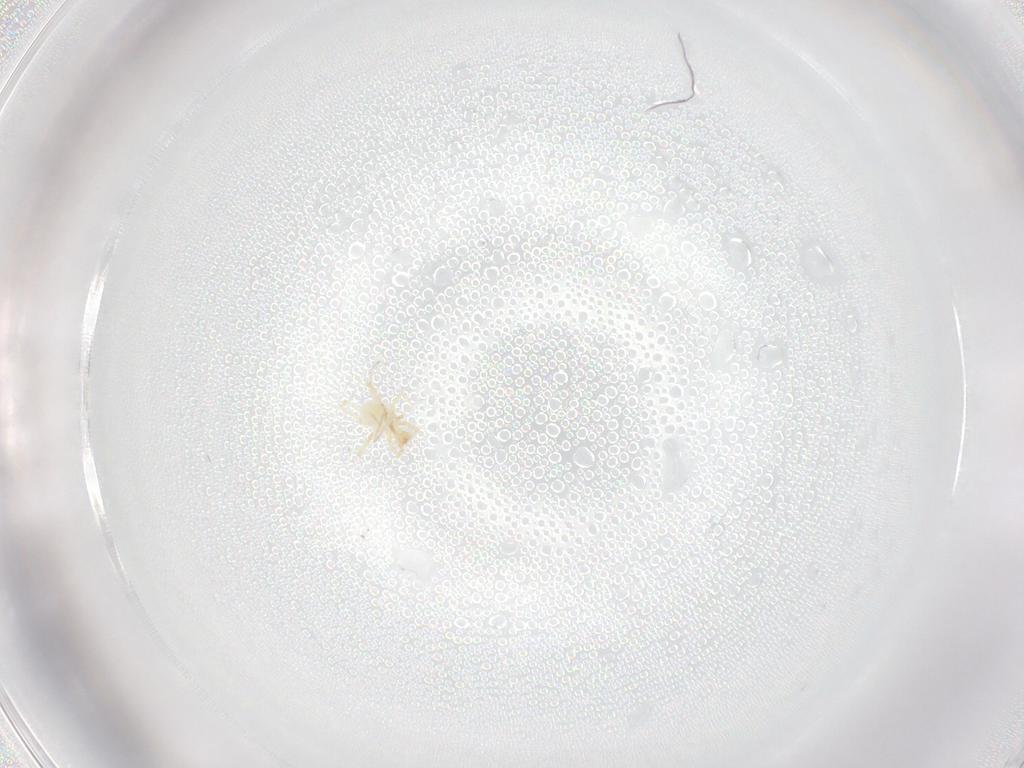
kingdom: Animalia
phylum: Arthropoda
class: Arachnida
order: Trombidiformes
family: Erythraeidae
